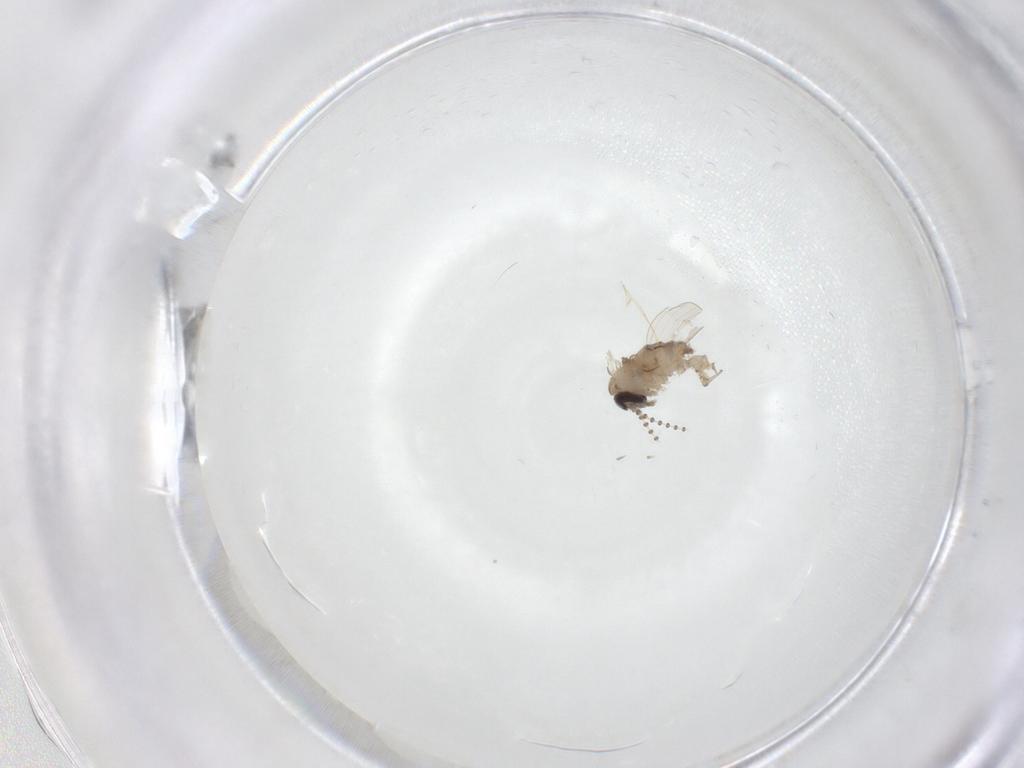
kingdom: Animalia
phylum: Arthropoda
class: Insecta
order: Diptera
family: Psychodidae
